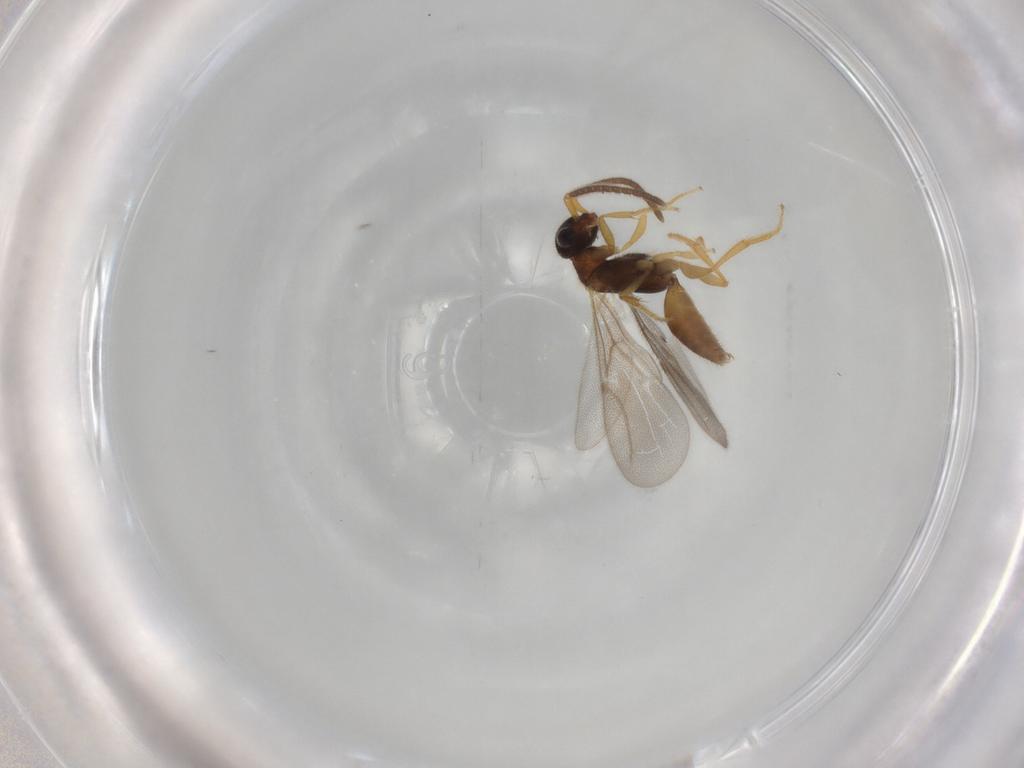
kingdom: Animalia
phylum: Arthropoda
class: Insecta
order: Hymenoptera
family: Bethylidae
